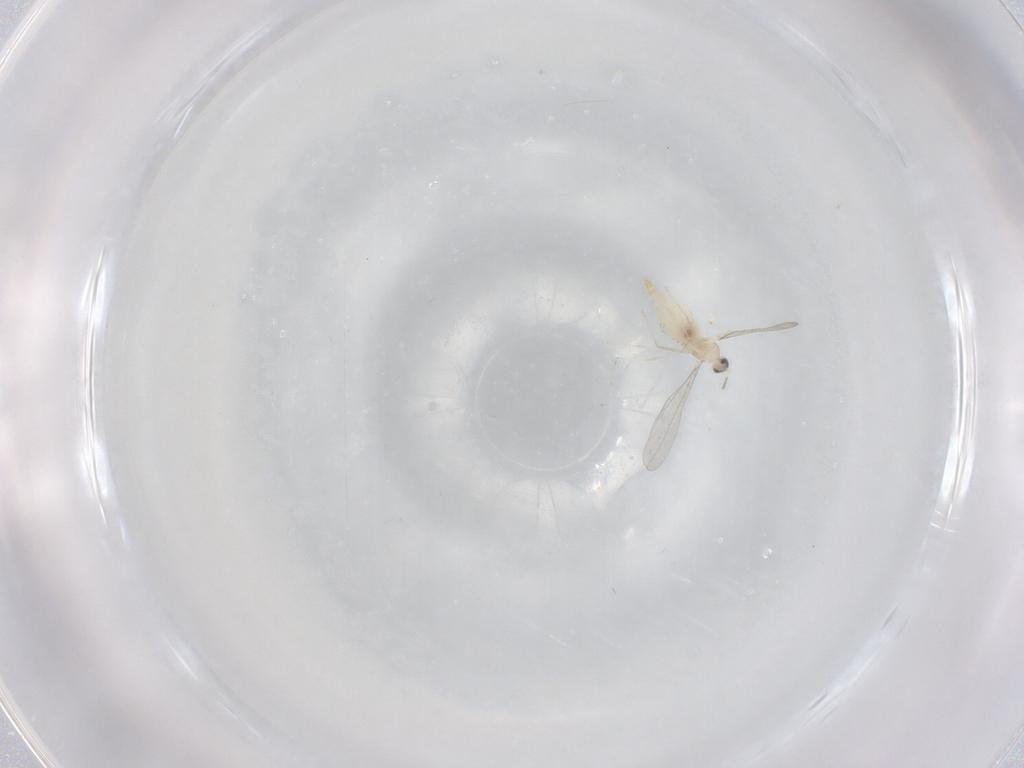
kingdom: Animalia
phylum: Arthropoda
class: Insecta
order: Diptera
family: Cecidomyiidae
